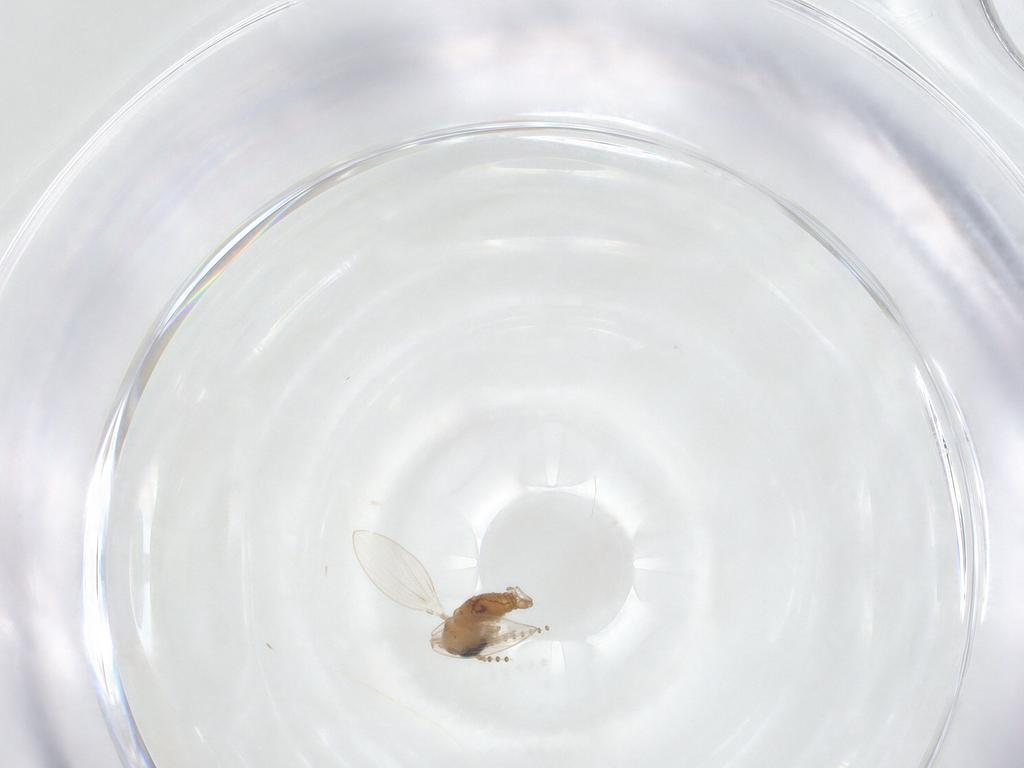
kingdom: Animalia
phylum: Arthropoda
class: Insecta
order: Diptera
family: Psychodidae
